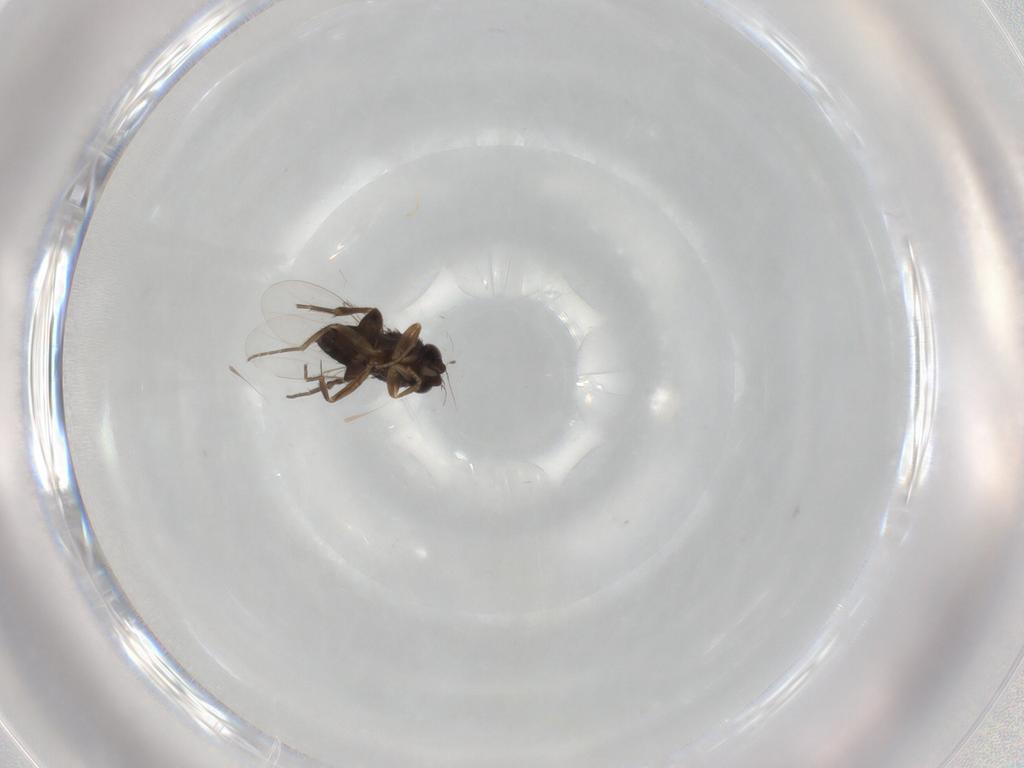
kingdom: Animalia
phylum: Arthropoda
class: Insecta
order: Diptera
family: Phoridae
